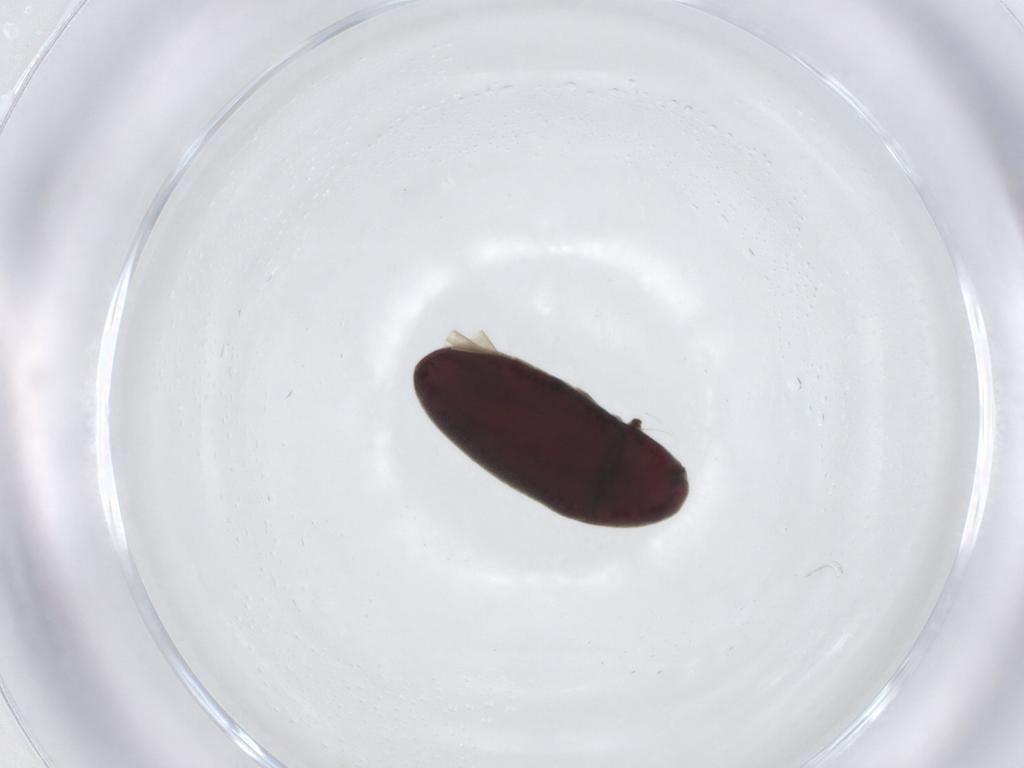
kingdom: Animalia
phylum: Arthropoda
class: Insecta
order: Coleoptera
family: Throscidae
